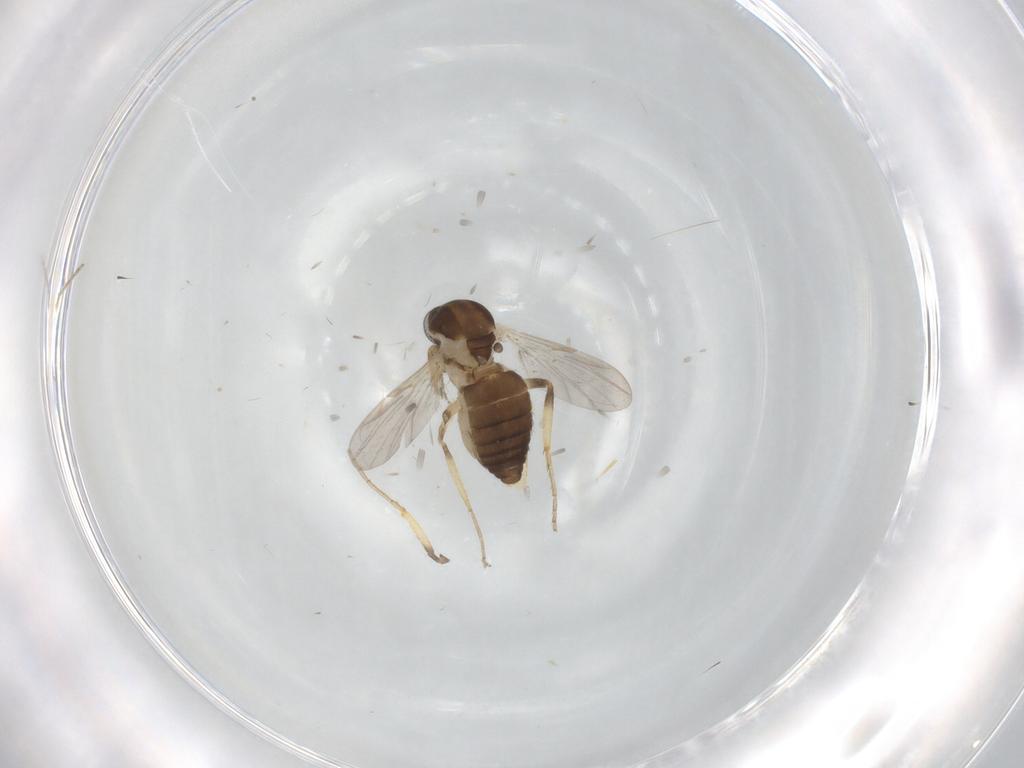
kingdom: Animalia
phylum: Arthropoda
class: Insecta
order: Diptera
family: Ceratopogonidae
